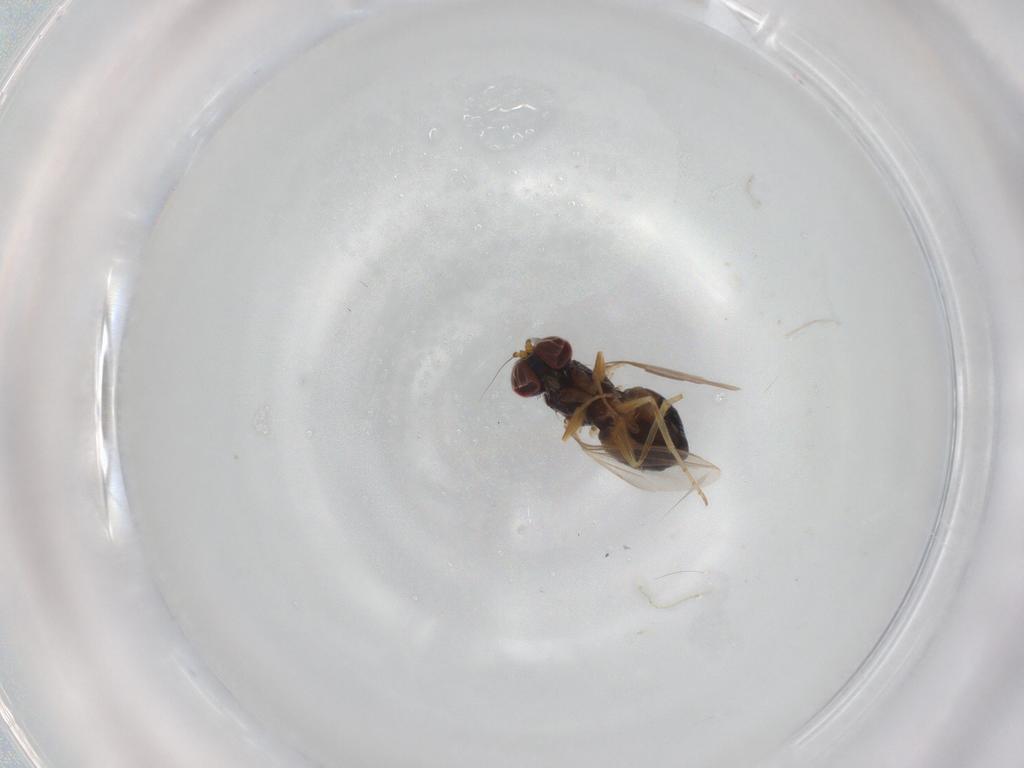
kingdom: Animalia
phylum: Arthropoda
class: Insecta
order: Diptera
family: Dolichopodidae
